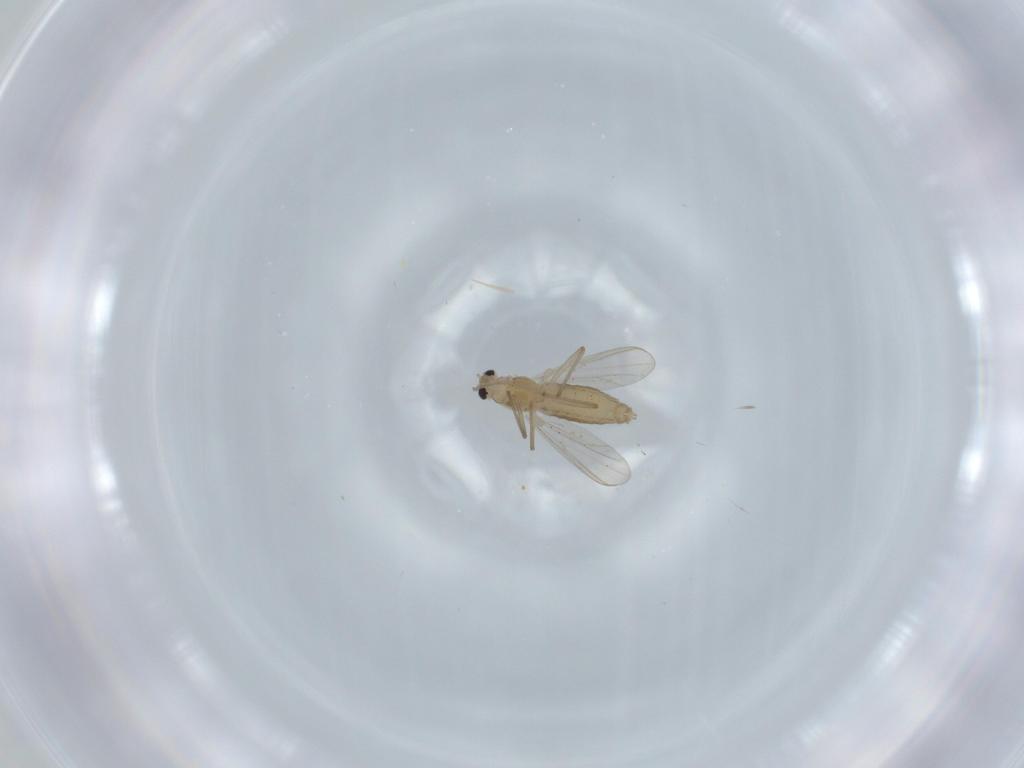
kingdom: Animalia
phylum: Arthropoda
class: Insecta
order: Diptera
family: Chironomidae
